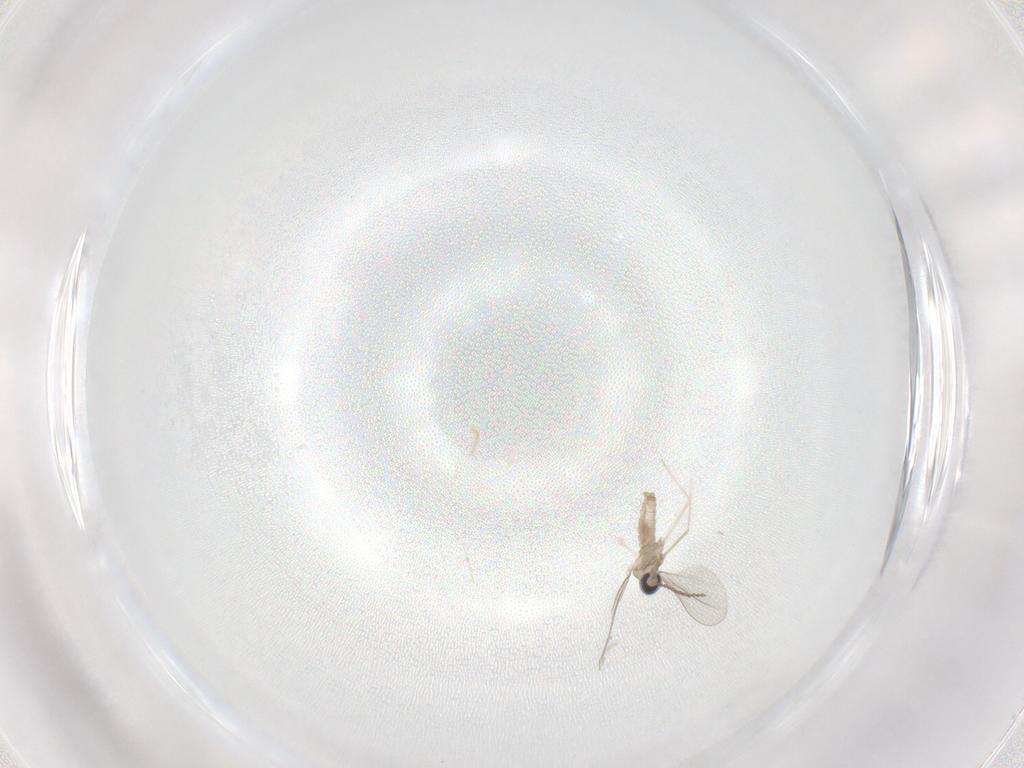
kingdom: Animalia
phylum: Arthropoda
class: Insecta
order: Diptera
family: Cecidomyiidae
